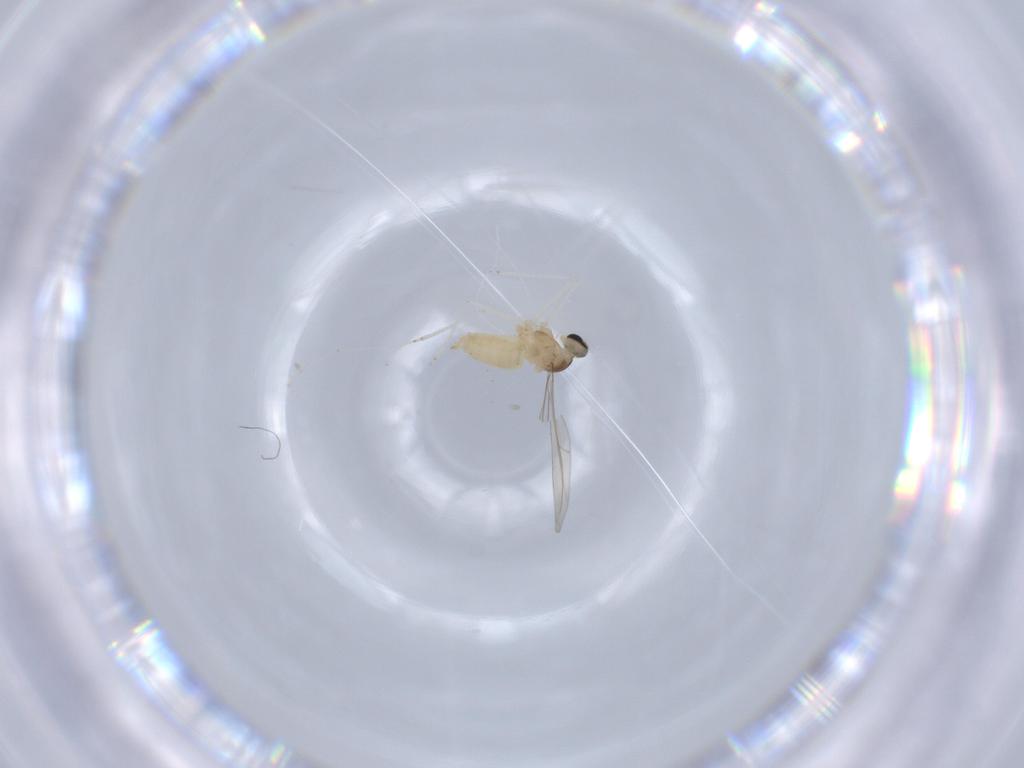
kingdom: Animalia
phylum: Arthropoda
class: Insecta
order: Diptera
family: Cecidomyiidae
